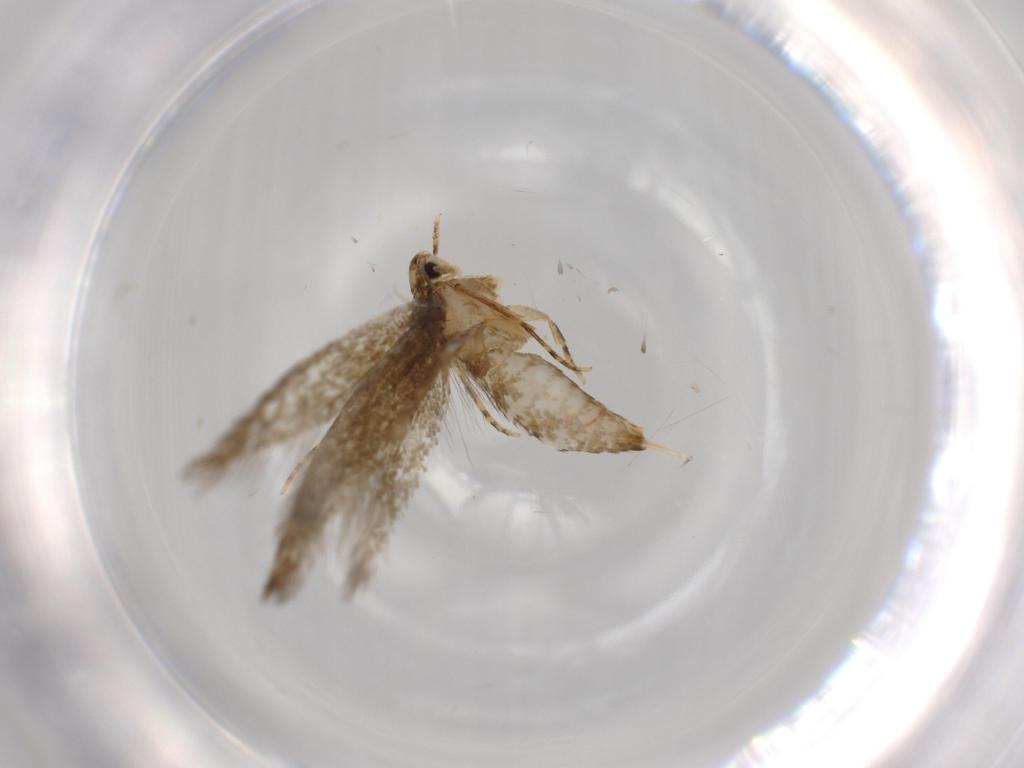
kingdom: Animalia
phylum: Arthropoda
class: Insecta
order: Lepidoptera
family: Tineidae
